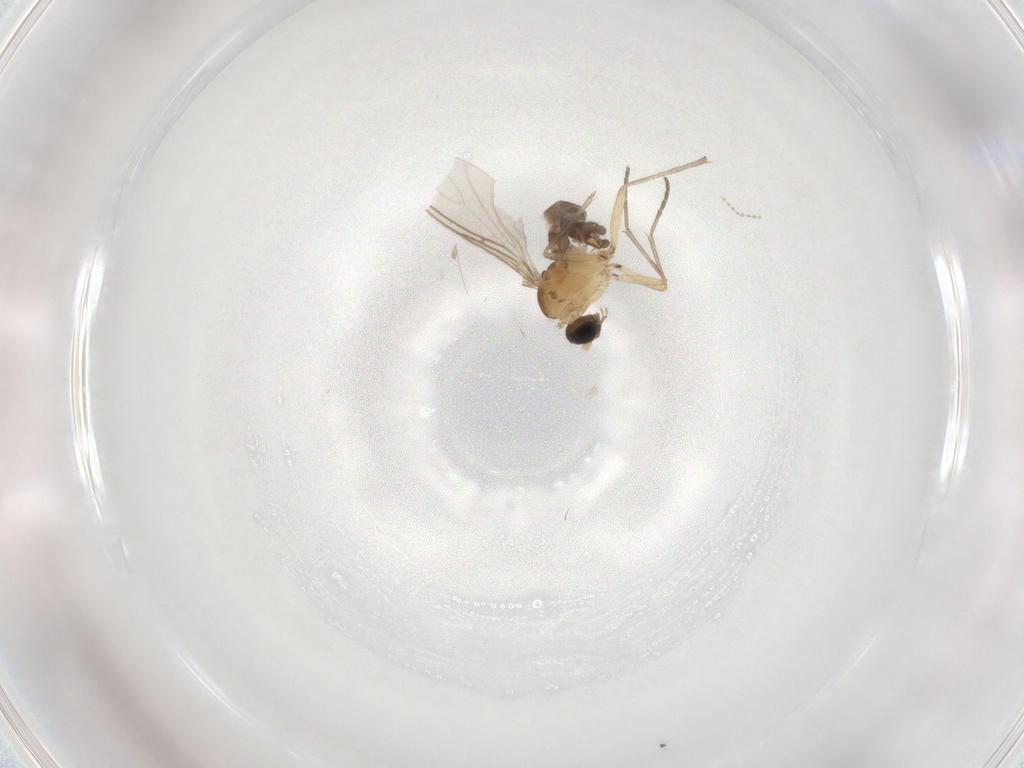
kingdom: Animalia
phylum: Arthropoda
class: Insecta
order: Diptera
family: Sciaridae
